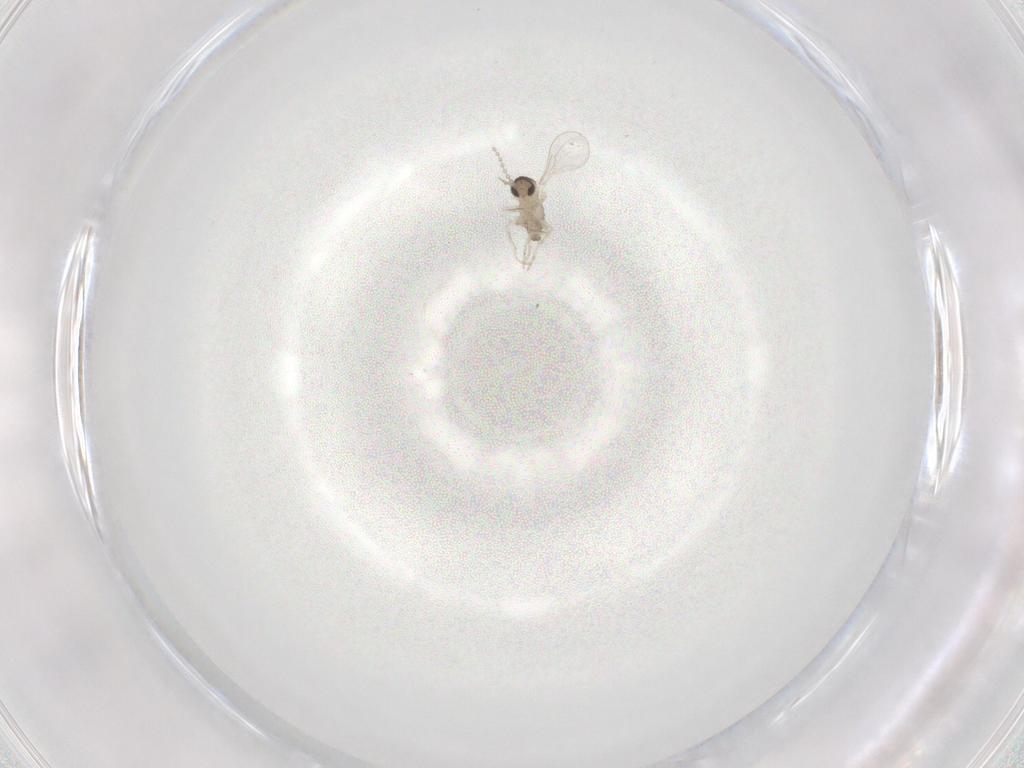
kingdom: Animalia
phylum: Arthropoda
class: Insecta
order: Diptera
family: Cecidomyiidae
